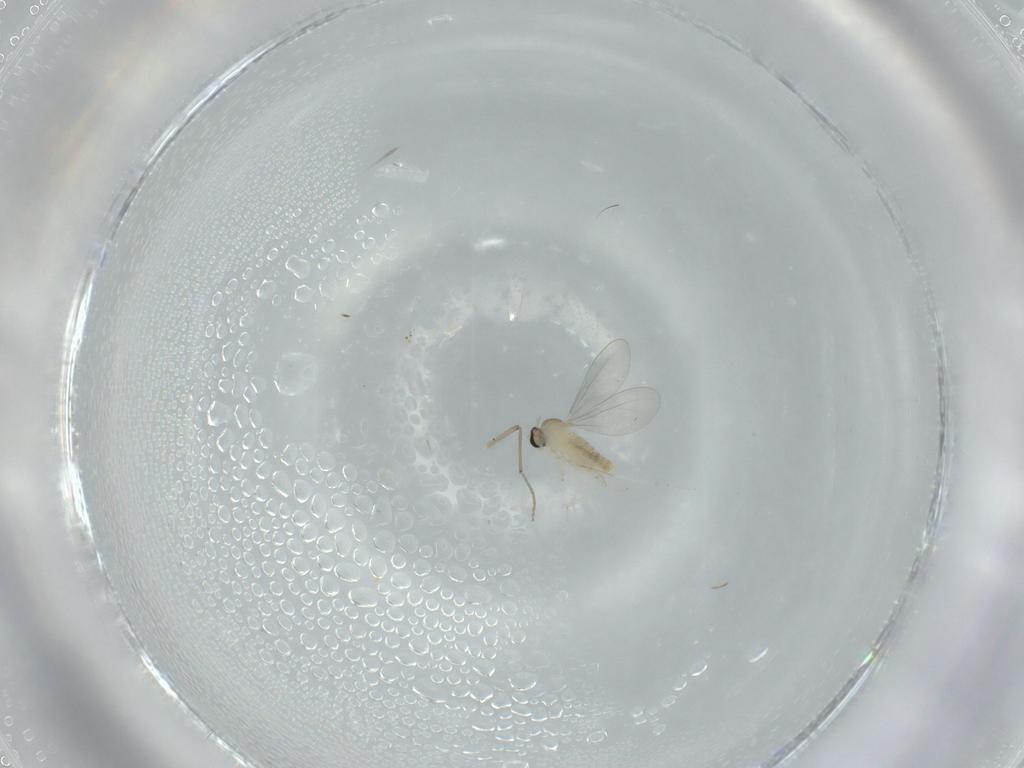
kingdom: Animalia
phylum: Arthropoda
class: Insecta
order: Diptera
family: Cecidomyiidae
